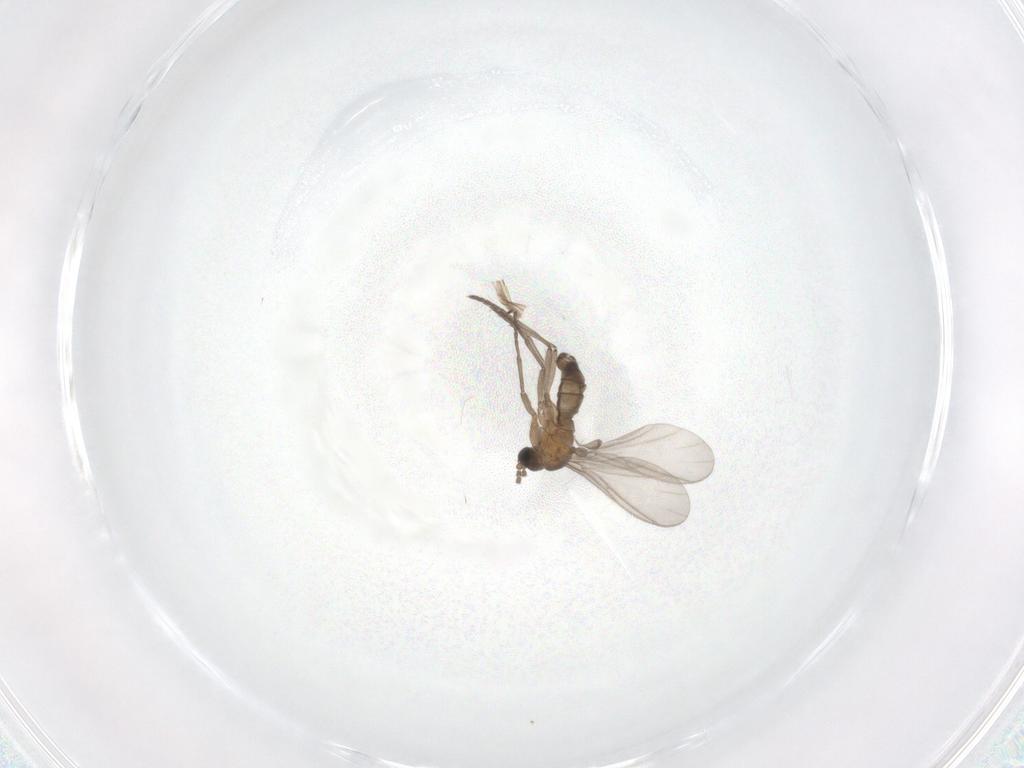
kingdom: Animalia
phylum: Arthropoda
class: Insecta
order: Diptera
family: Sciaridae
